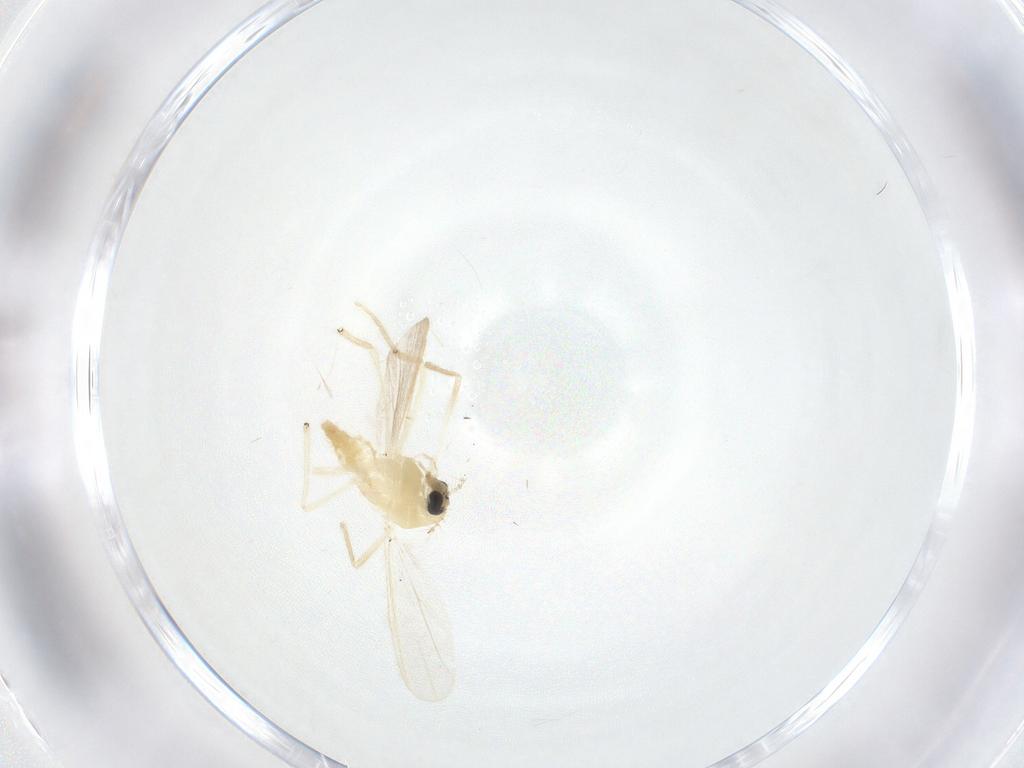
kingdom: Animalia
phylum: Arthropoda
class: Insecta
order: Diptera
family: Chironomidae
